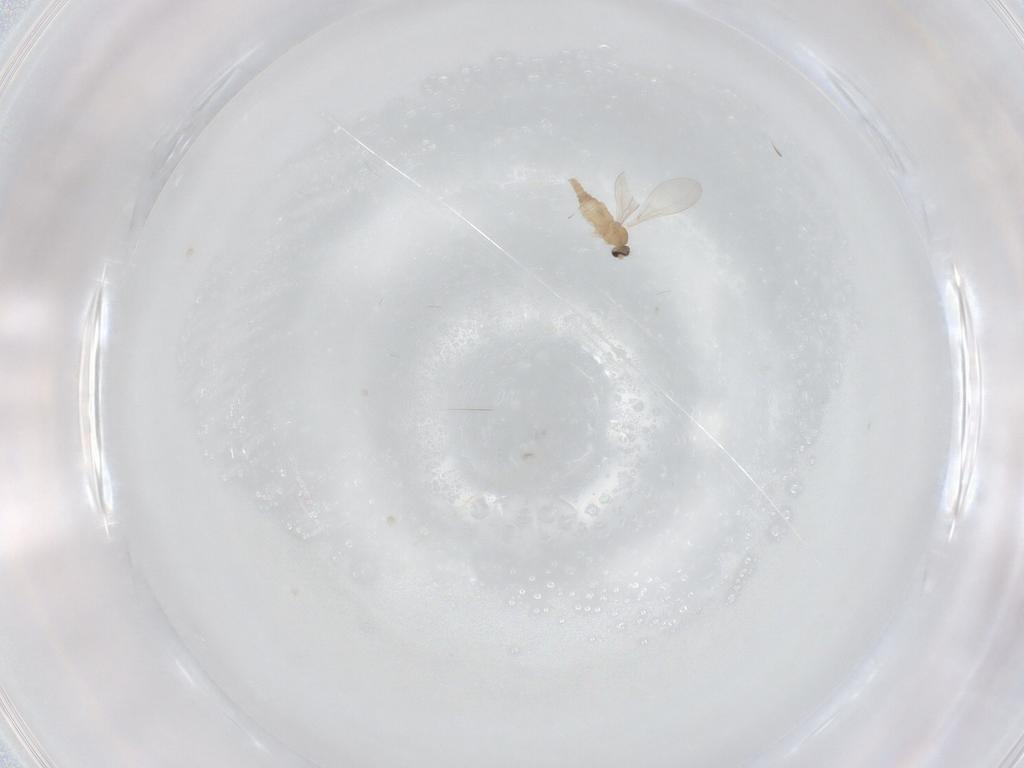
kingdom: Animalia
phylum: Arthropoda
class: Insecta
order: Diptera
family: Cecidomyiidae
